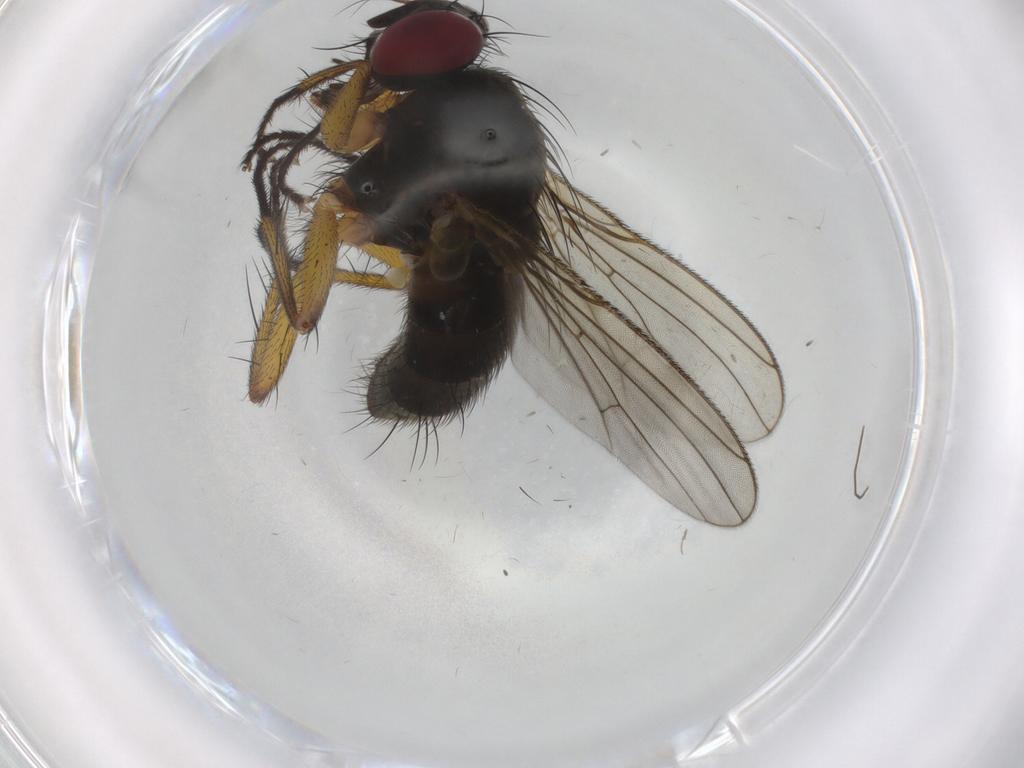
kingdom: Animalia
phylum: Arthropoda
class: Insecta
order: Diptera
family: Muscidae
